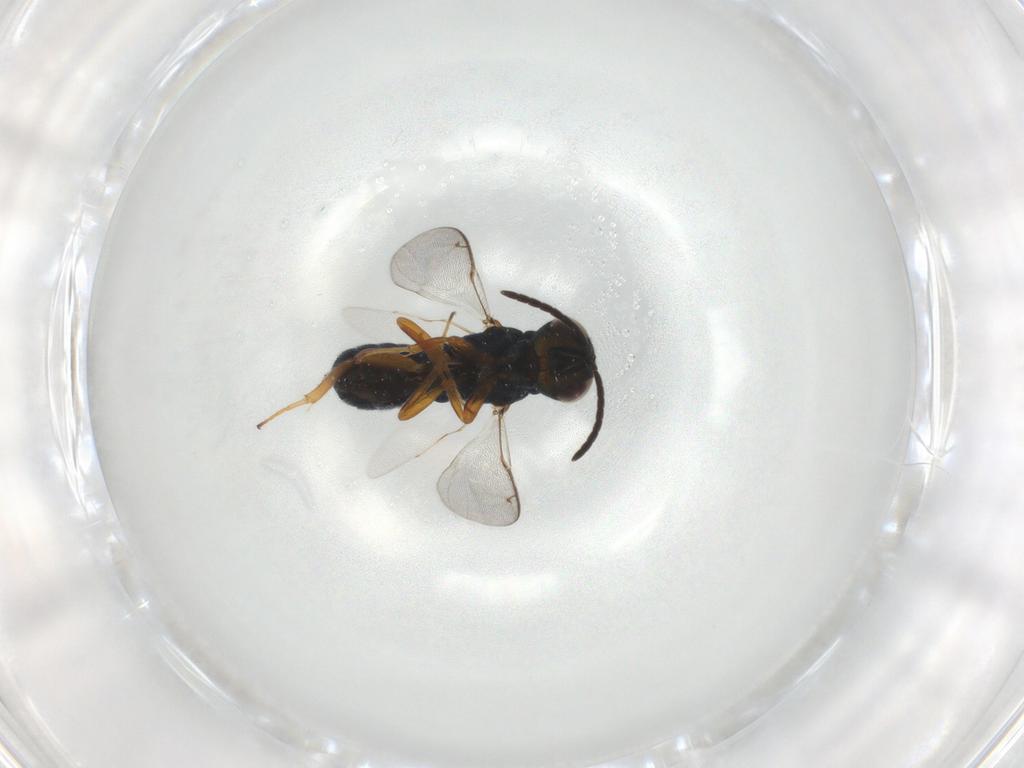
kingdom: Animalia
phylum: Arthropoda
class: Insecta
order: Hymenoptera
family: Pteromalidae
